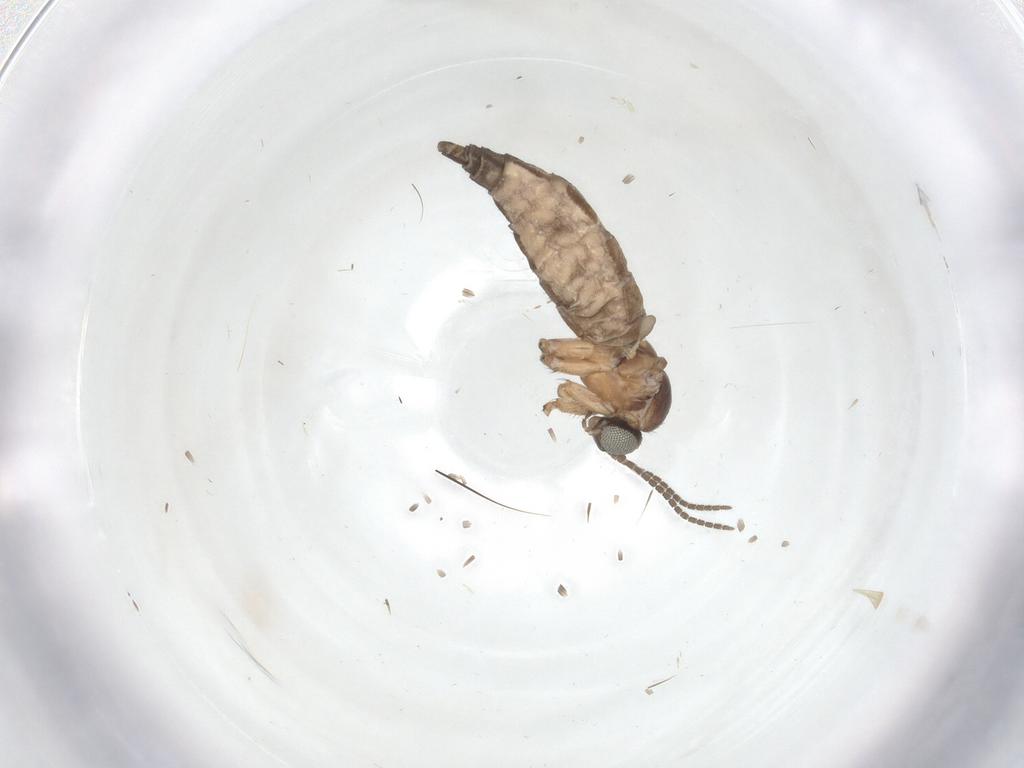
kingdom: Animalia
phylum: Arthropoda
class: Insecta
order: Diptera
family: Sciaridae
